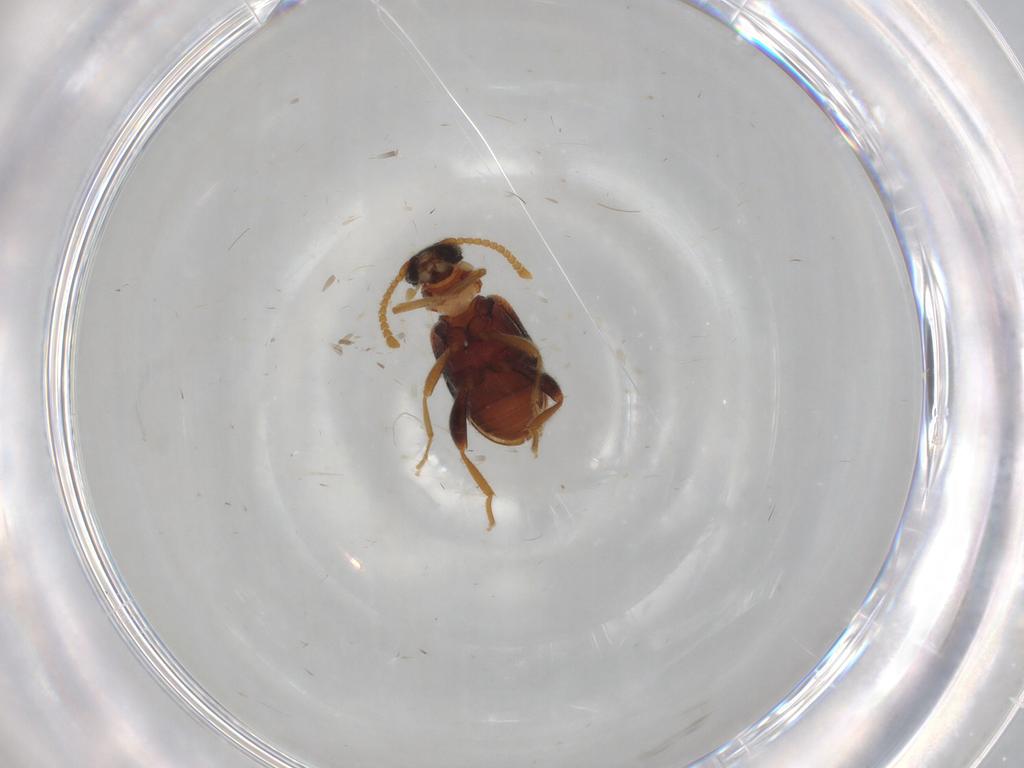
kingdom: Animalia
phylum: Arthropoda
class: Insecta
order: Coleoptera
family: Aderidae
